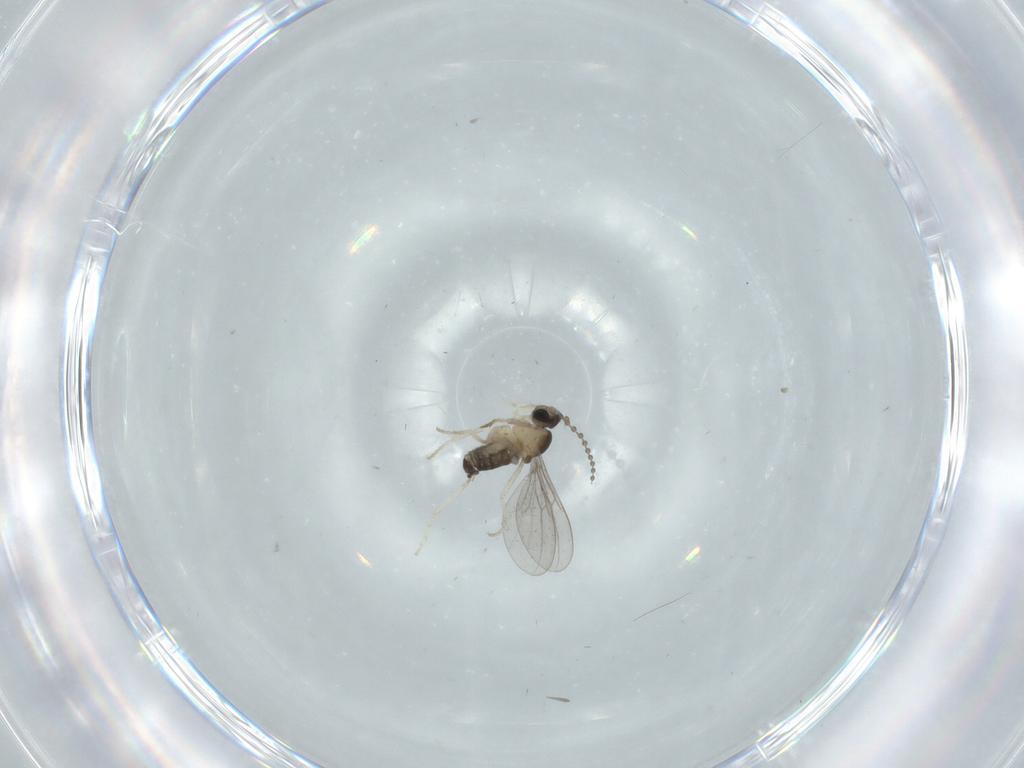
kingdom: Animalia
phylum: Arthropoda
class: Insecta
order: Diptera
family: Cecidomyiidae
